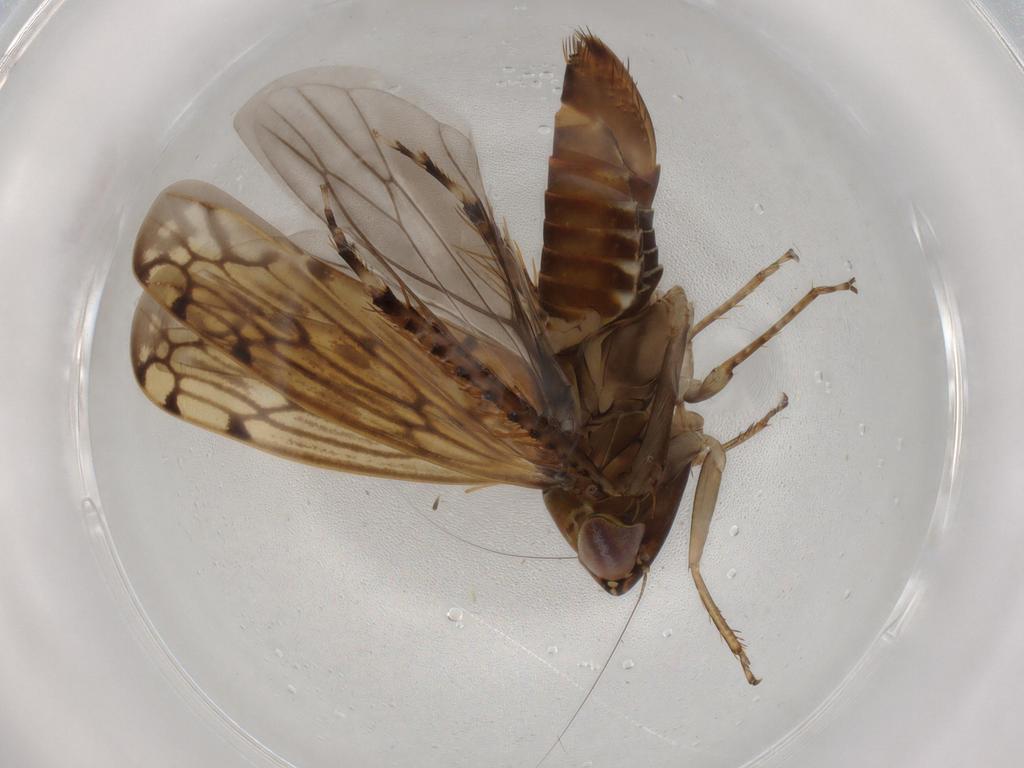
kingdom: Animalia
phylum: Arthropoda
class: Insecta
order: Hemiptera
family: Cicadellidae
